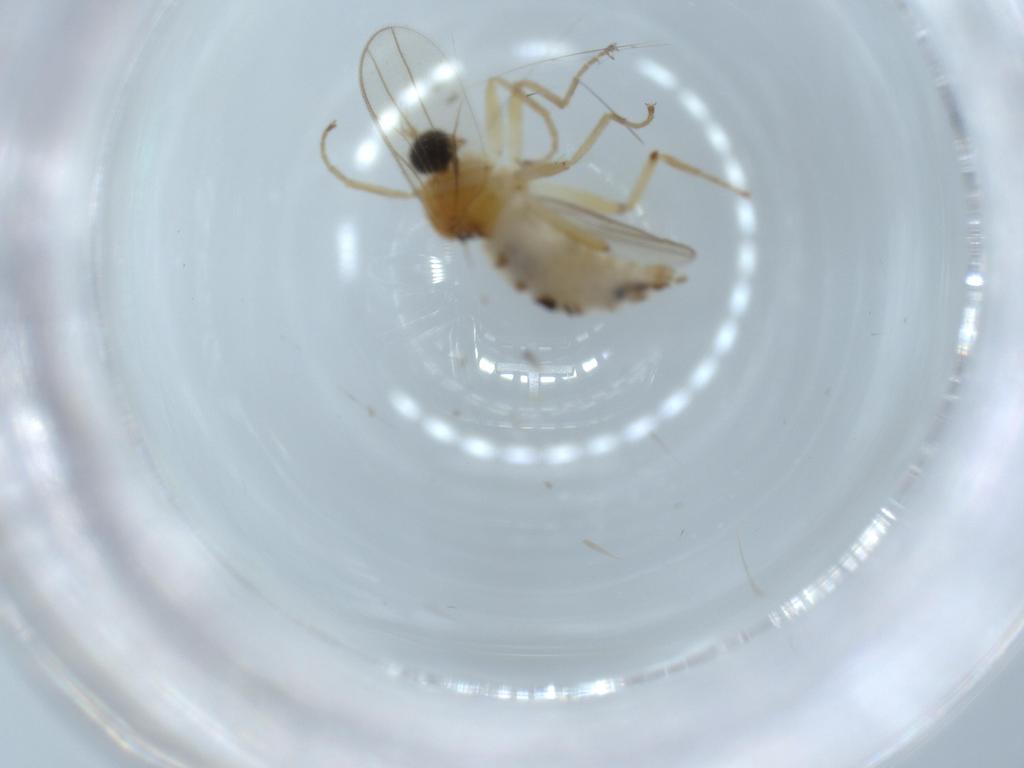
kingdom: Animalia
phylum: Arthropoda
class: Insecta
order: Diptera
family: Hybotidae
